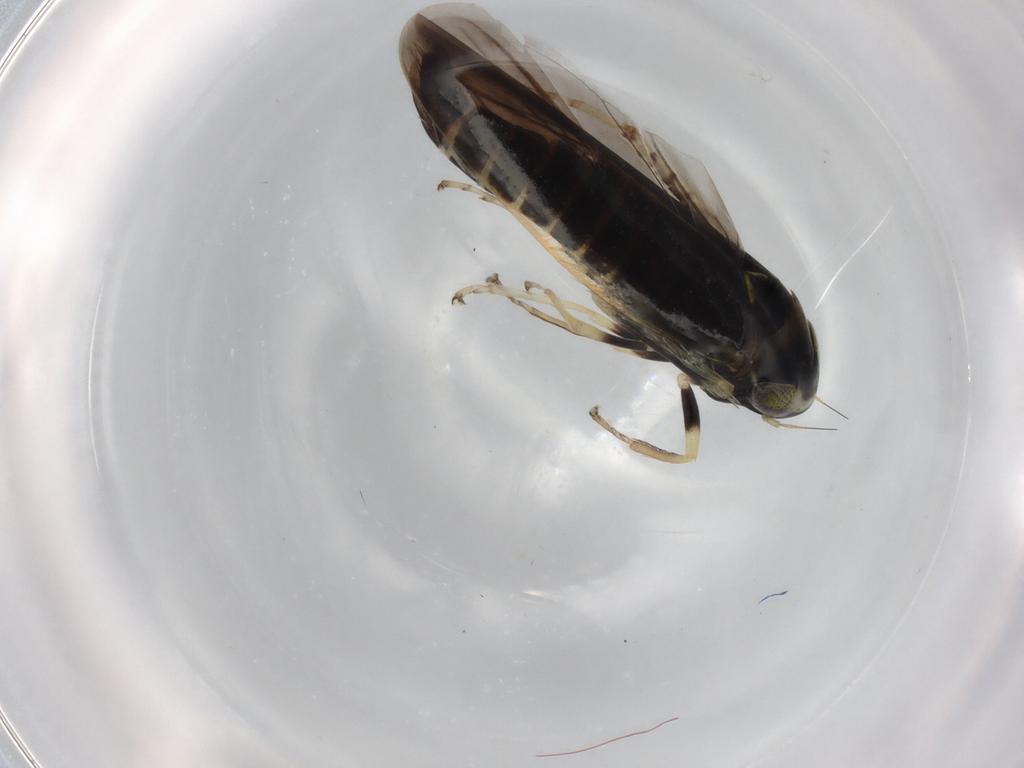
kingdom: Animalia
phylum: Arthropoda
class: Insecta
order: Hemiptera
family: Cicadellidae
